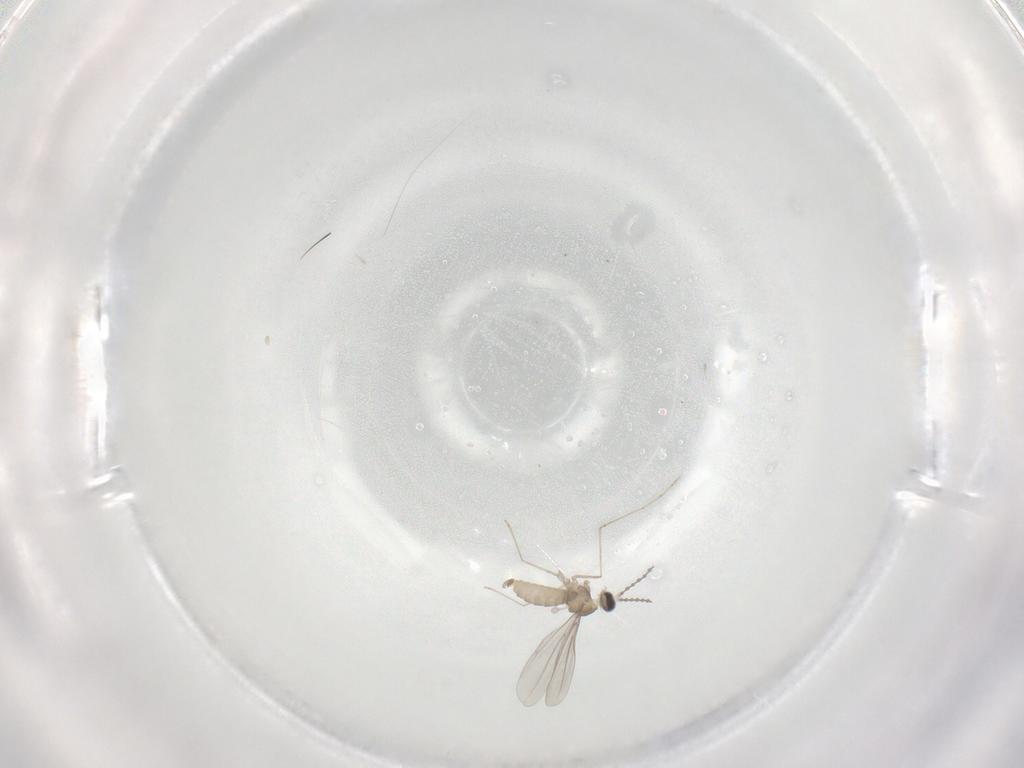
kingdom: Animalia
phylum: Arthropoda
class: Insecta
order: Diptera
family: Cecidomyiidae
